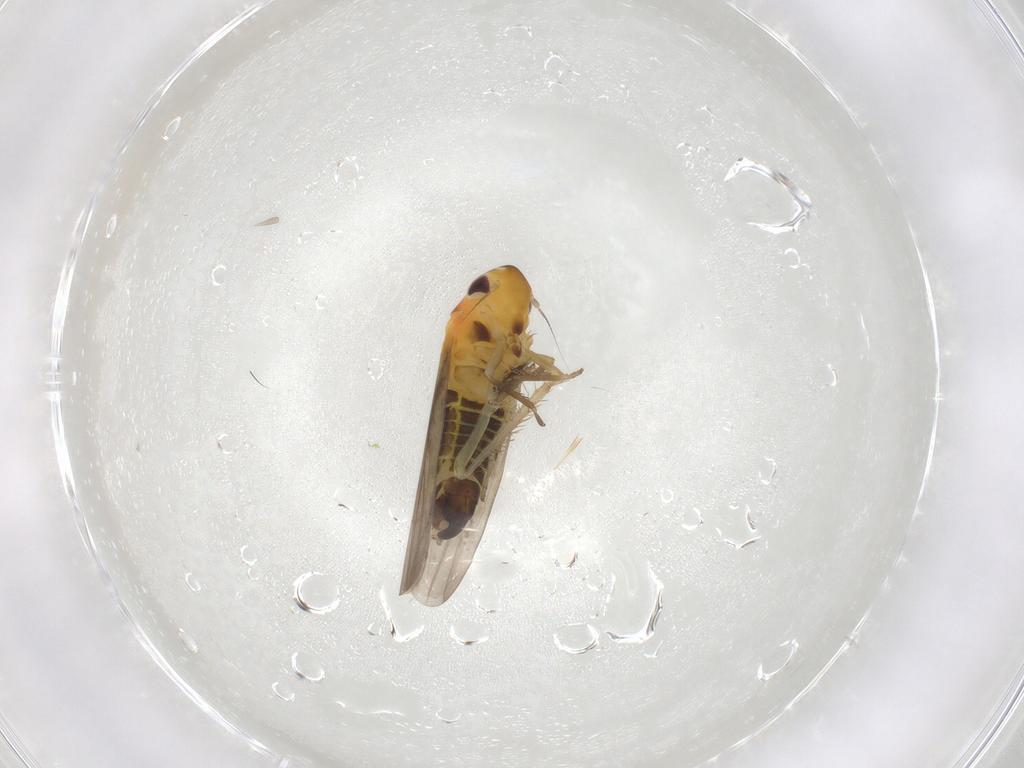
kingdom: Animalia
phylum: Arthropoda
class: Insecta
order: Hemiptera
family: Cicadellidae
